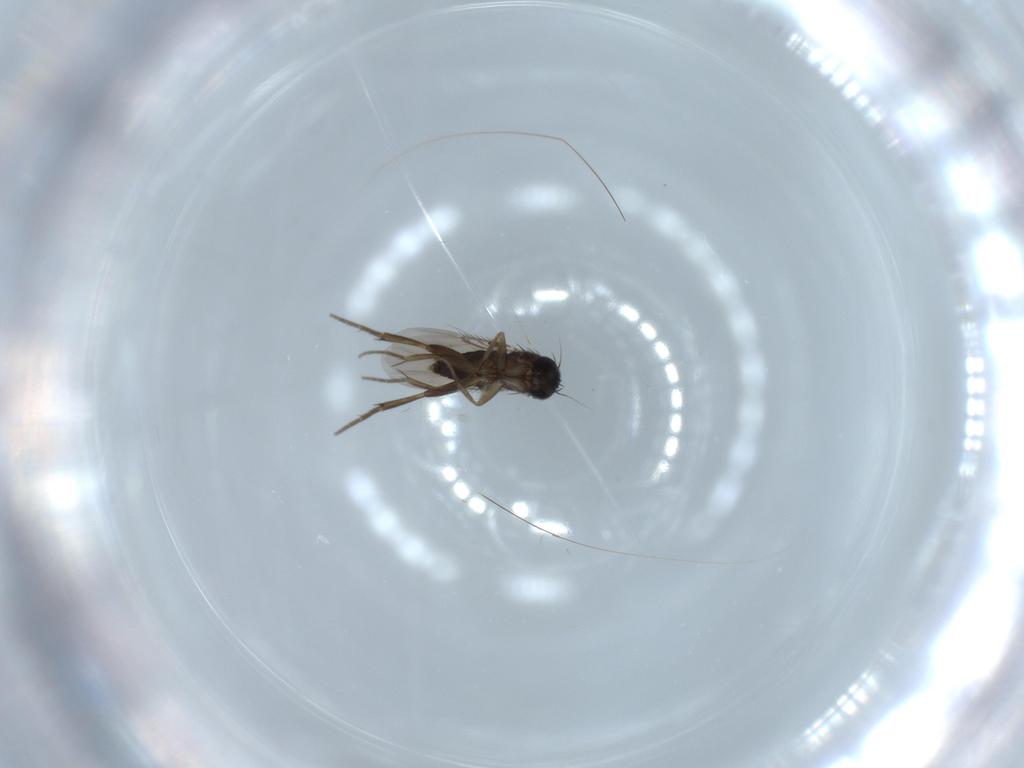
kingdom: Animalia
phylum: Arthropoda
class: Insecta
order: Diptera
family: Phoridae
